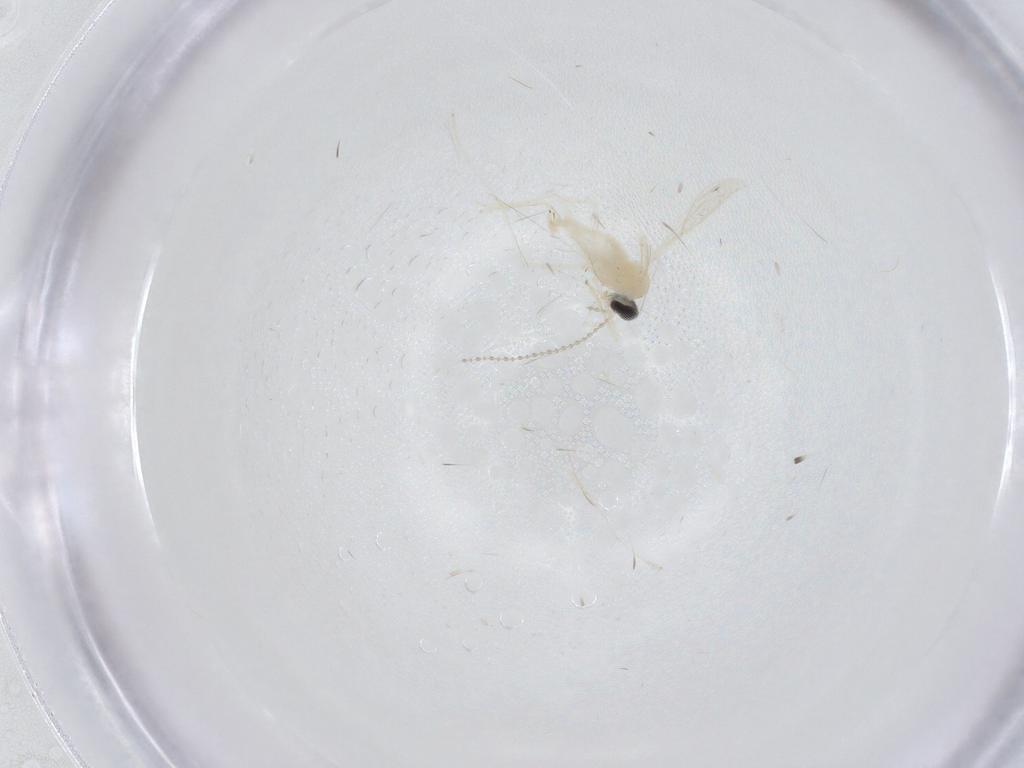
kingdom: Animalia
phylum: Arthropoda
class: Insecta
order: Diptera
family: Cecidomyiidae
